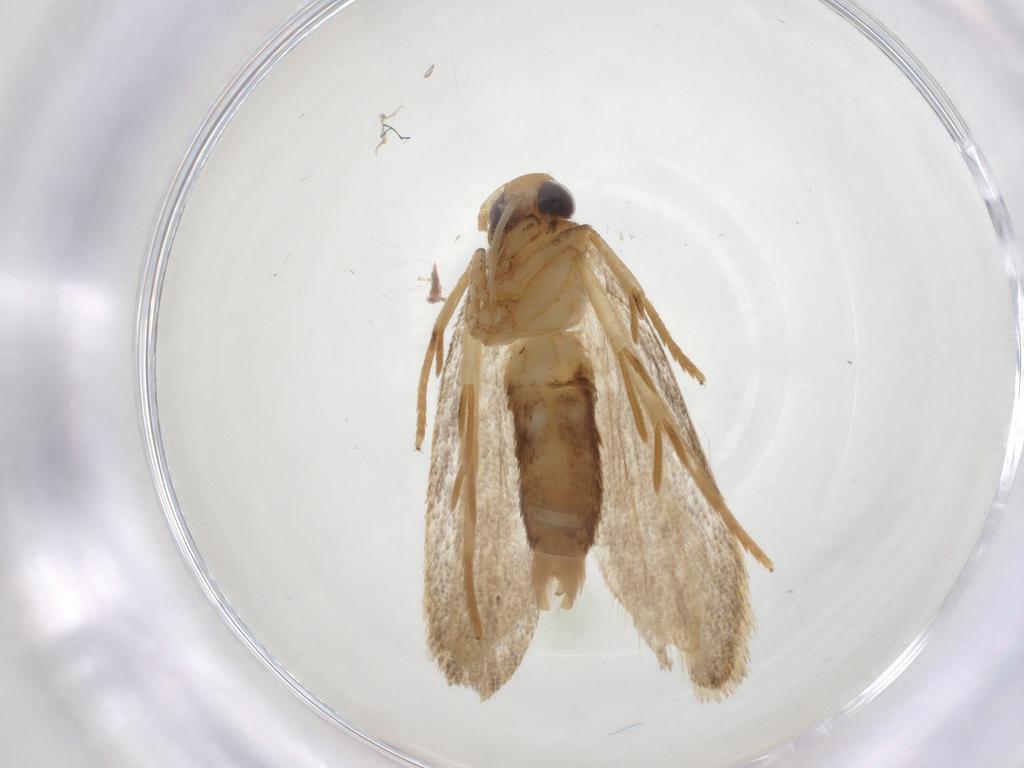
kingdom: Animalia
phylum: Arthropoda
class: Insecta
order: Lepidoptera
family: Oecophoridae
